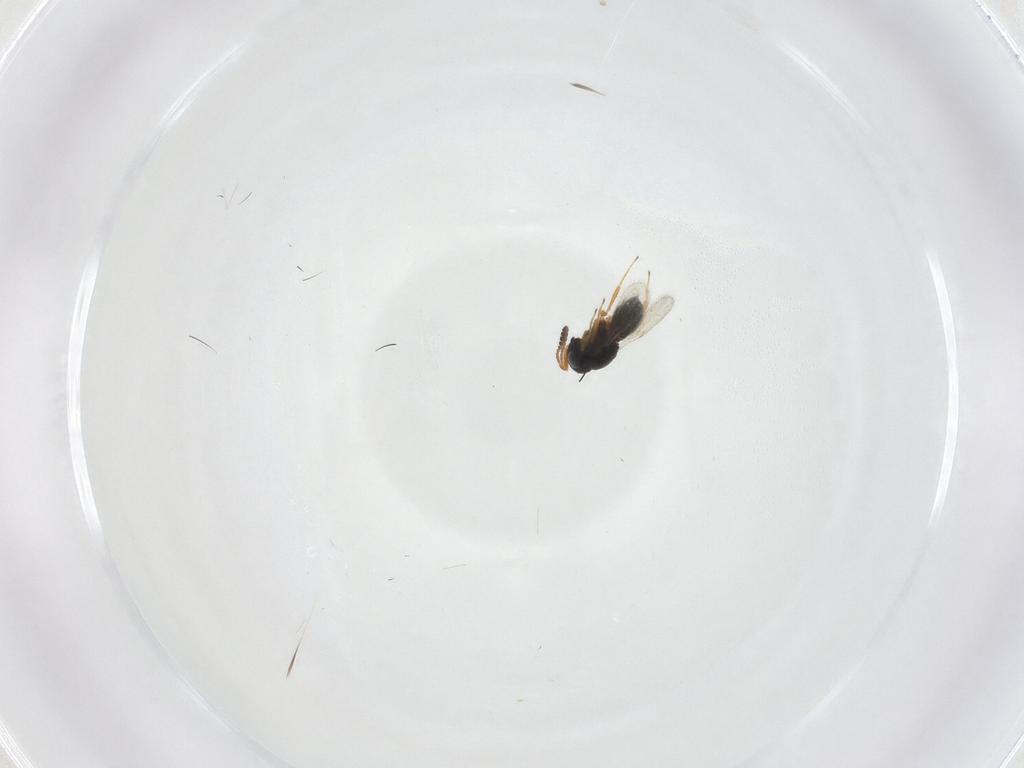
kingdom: Animalia
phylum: Arthropoda
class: Insecta
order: Hymenoptera
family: Scelionidae
